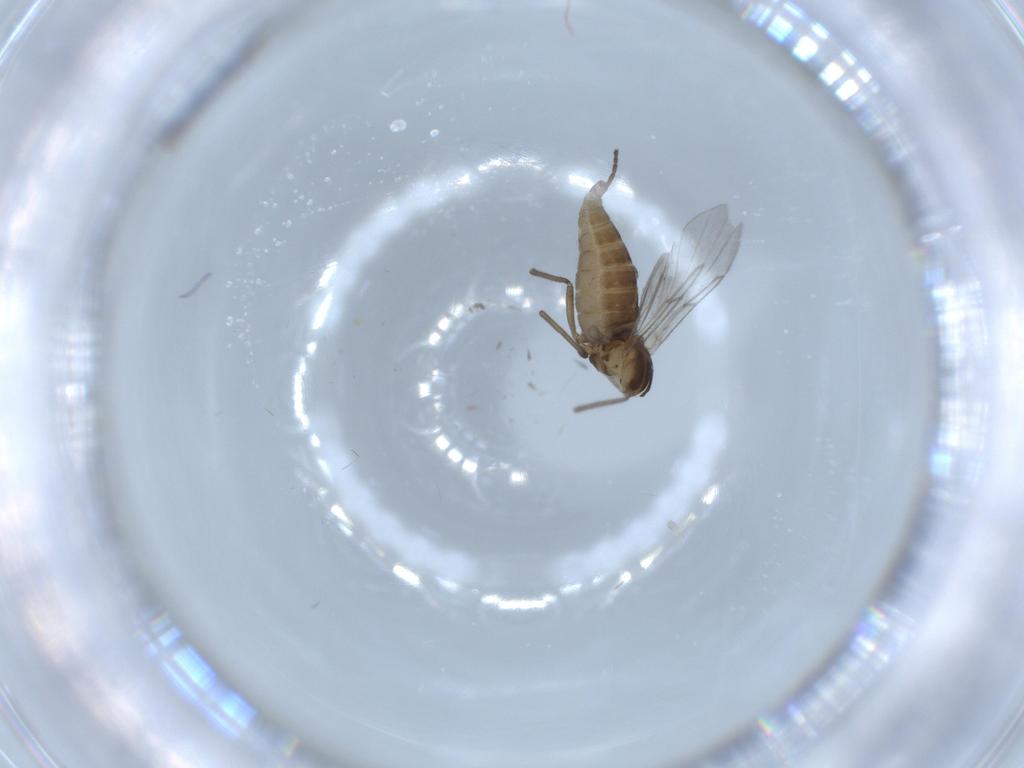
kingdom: Animalia
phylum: Arthropoda
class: Insecta
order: Diptera
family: Cecidomyiidae
